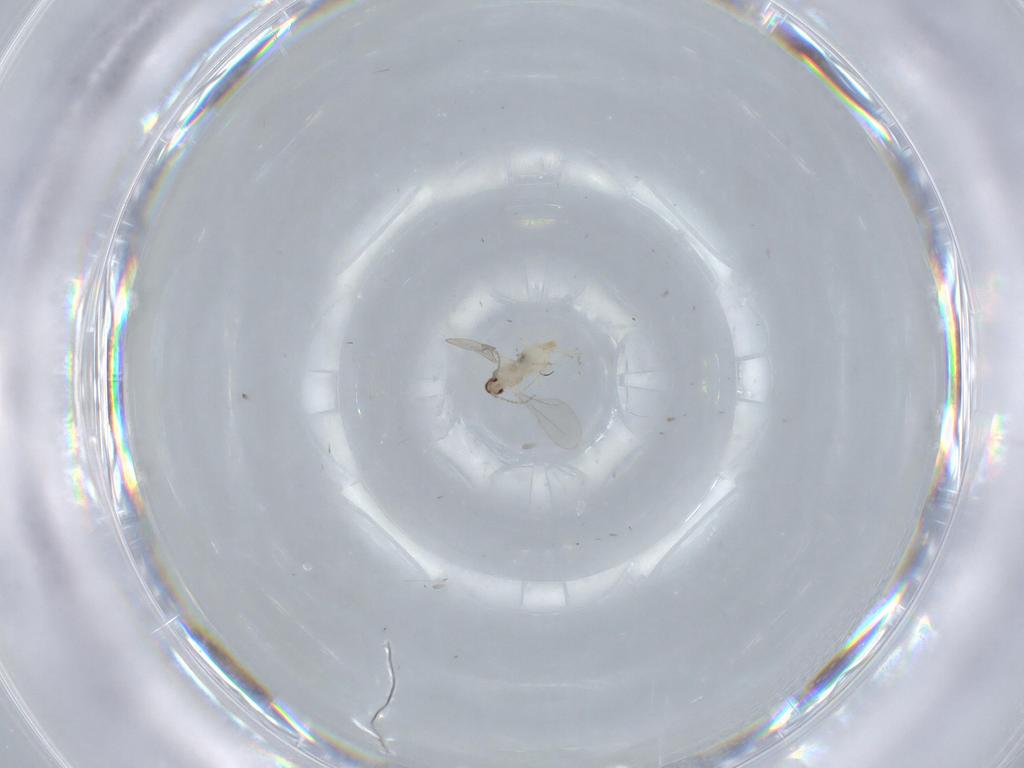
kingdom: Animalia
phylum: Arthropoda
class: Insecta
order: Diptera
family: Cecidomyiidae
